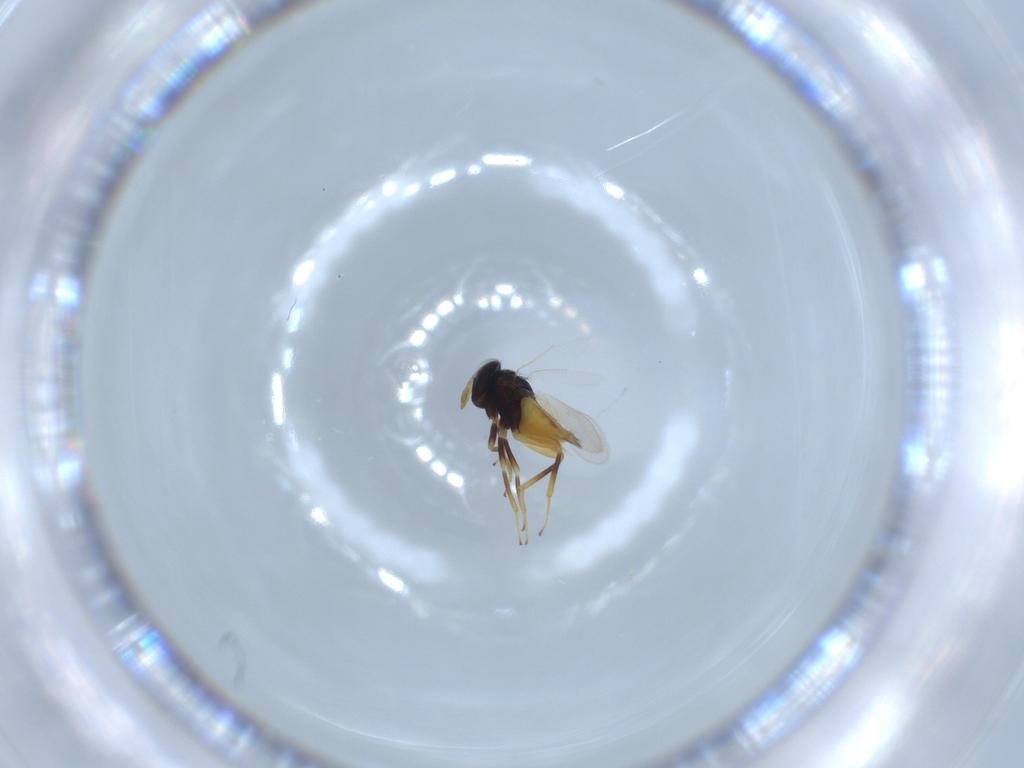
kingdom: Animalia
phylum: Arthropoda
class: Insecta
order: Hymenoptera
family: Aphelinidae
